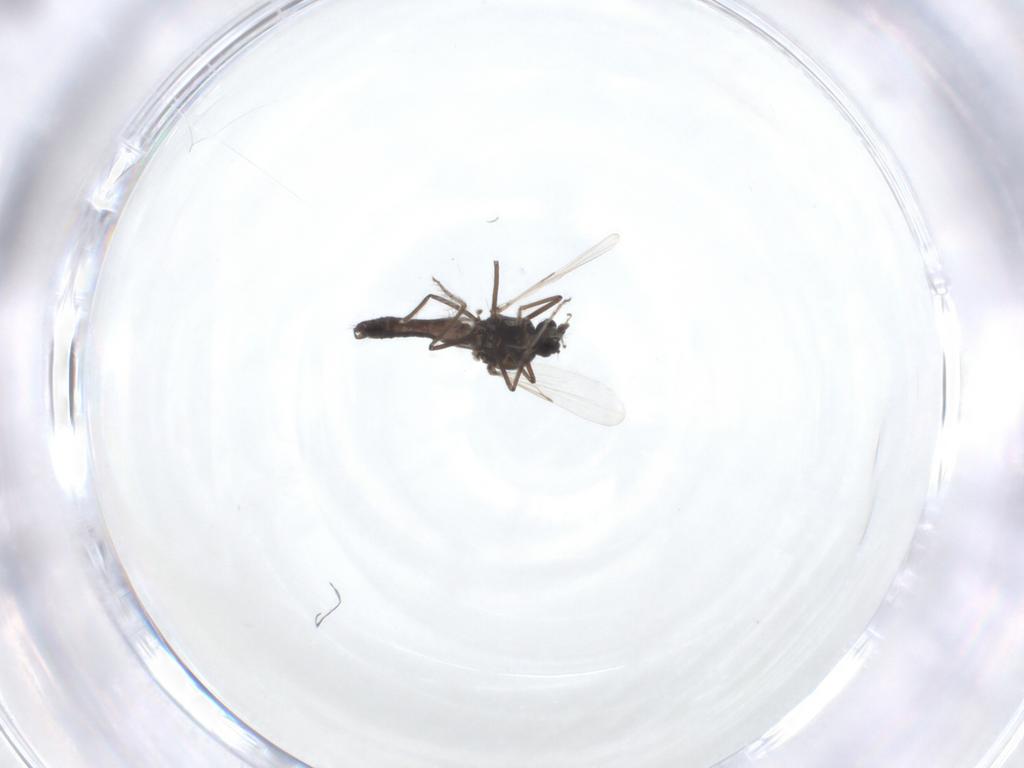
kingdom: Animalia
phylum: Arthropoda
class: Insecta
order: Diptera
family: Ceratopogonidae
